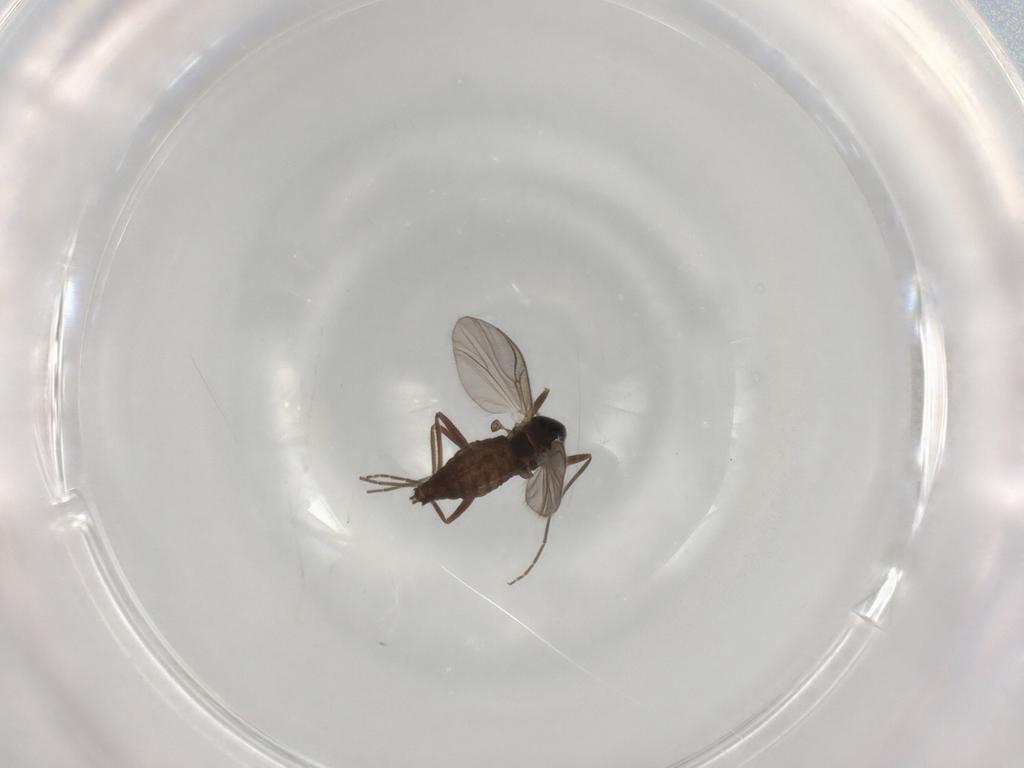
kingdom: Animalia
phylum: Arthropoda
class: Insecta
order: Diptera
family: Chironomidae
